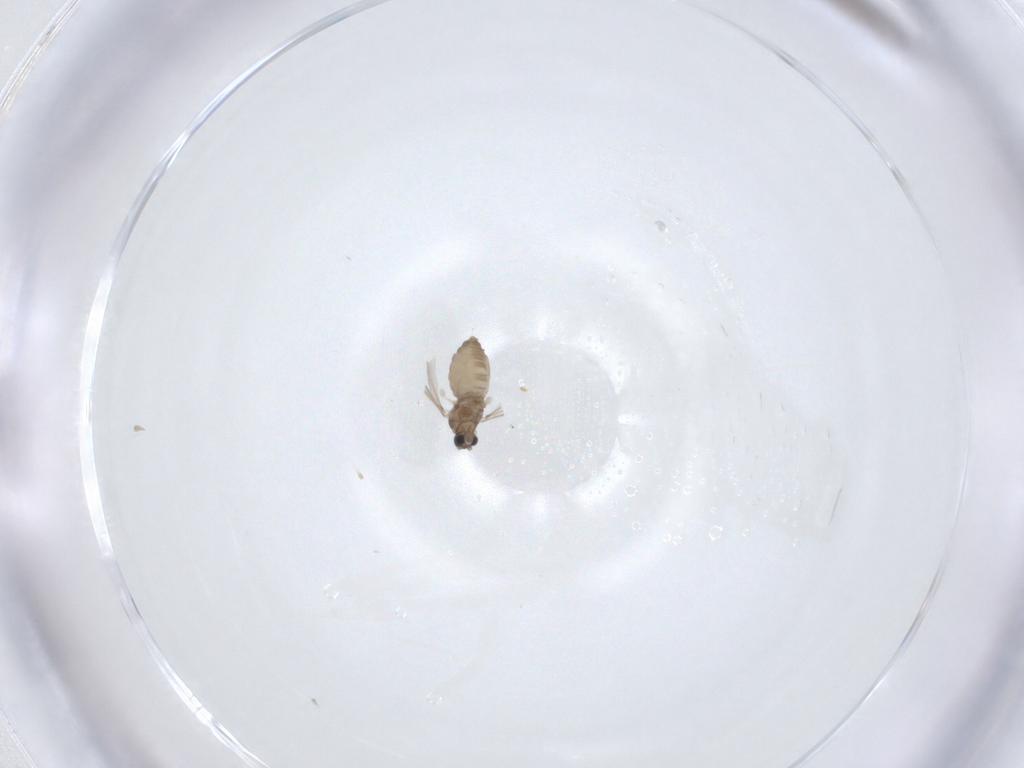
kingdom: Animalia
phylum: Arthropoda
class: Insecta
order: Diptera
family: Cecidomyiidae
